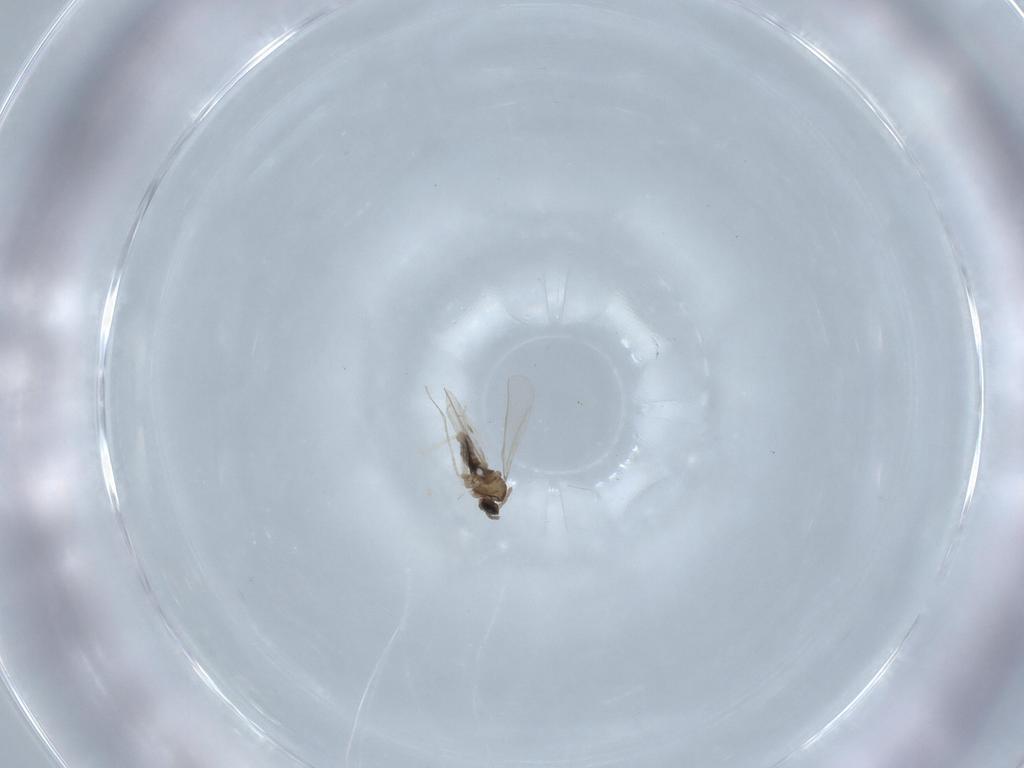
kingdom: Animalia
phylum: Arthropoda
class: Insecta
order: Diptera
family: Cecidomyiidae
